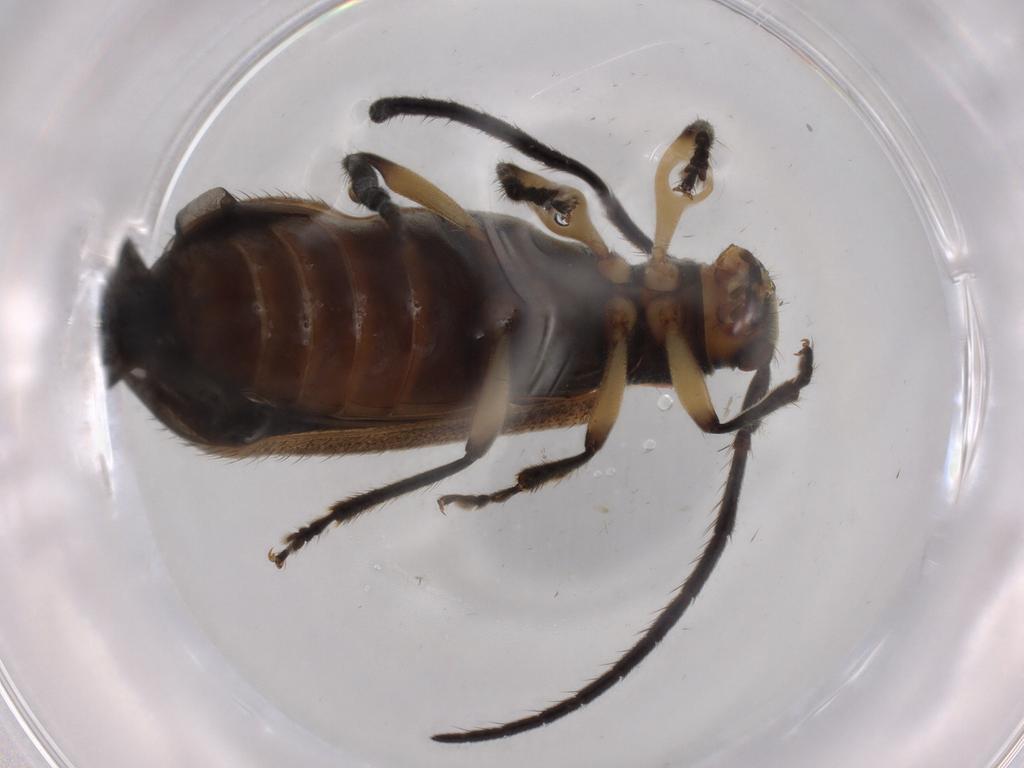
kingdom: Animalia
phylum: Arthropoda
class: Insecta
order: Coleoptera
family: Cerambycidae
